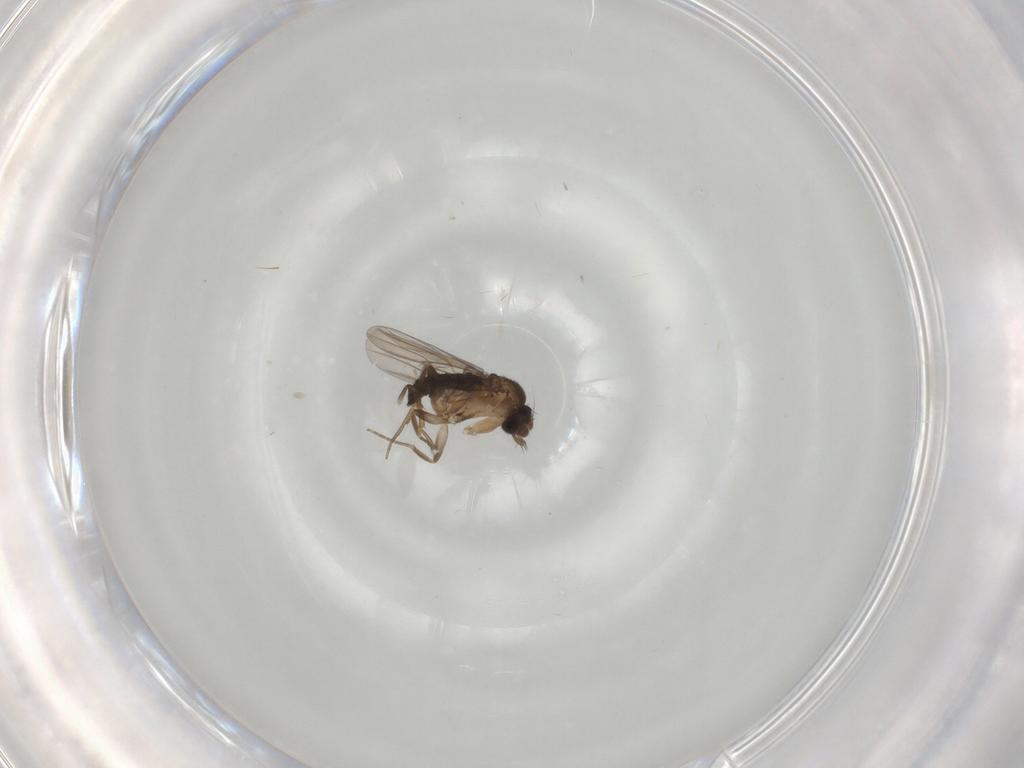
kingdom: Animalia
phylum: Arthropoda
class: Insecta
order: Diptera
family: Phoridae
